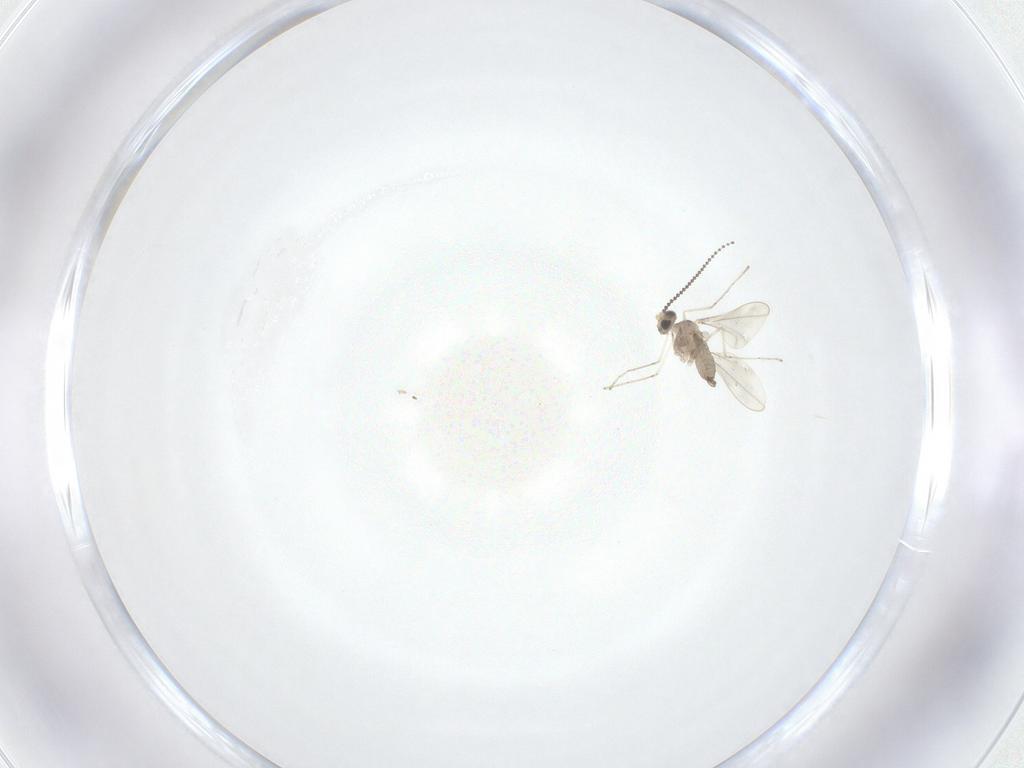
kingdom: Animalia
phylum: Arthropoda
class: Insecta
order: Diptera
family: Cecidomyiidae
